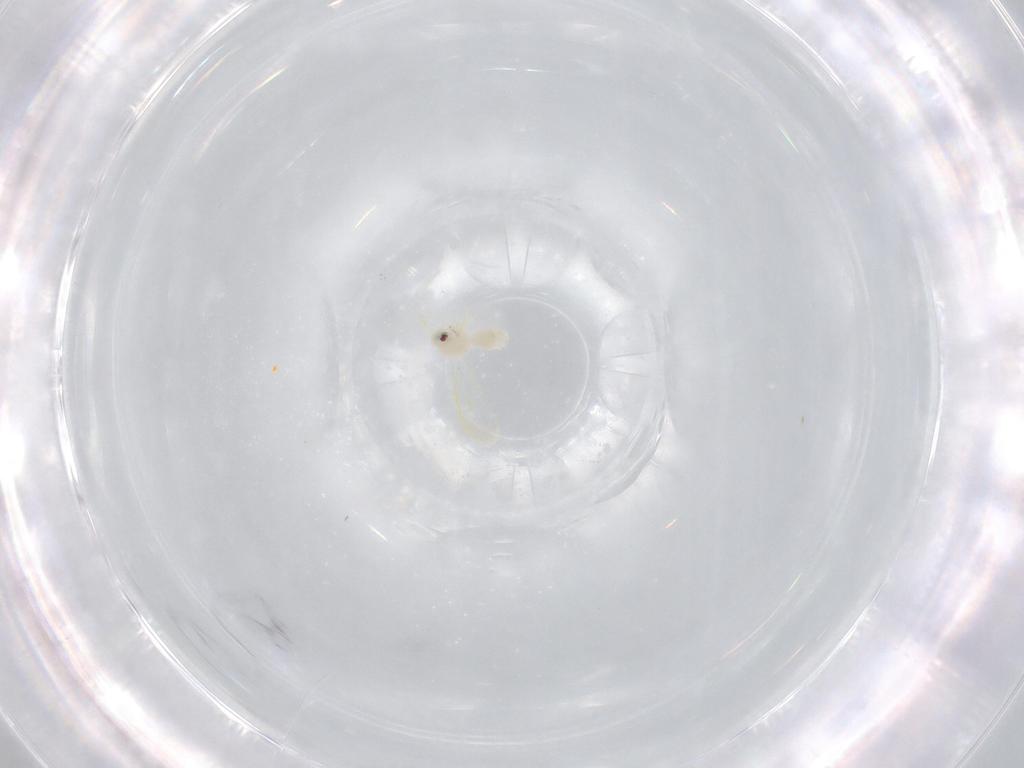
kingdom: Animalia
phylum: Arthropoda
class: Insecta
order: Hemiptera
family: Aleyrodidae
